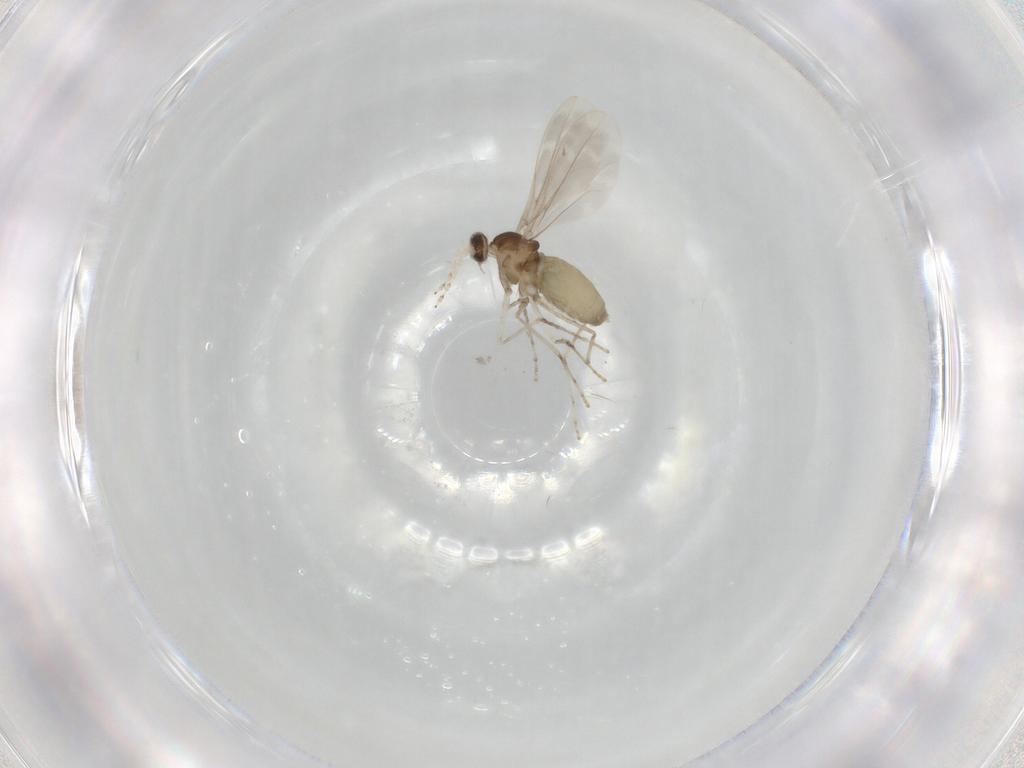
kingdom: Animalia
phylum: Arthropoda
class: Insecta
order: Diptera
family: Cecidomyiidae
